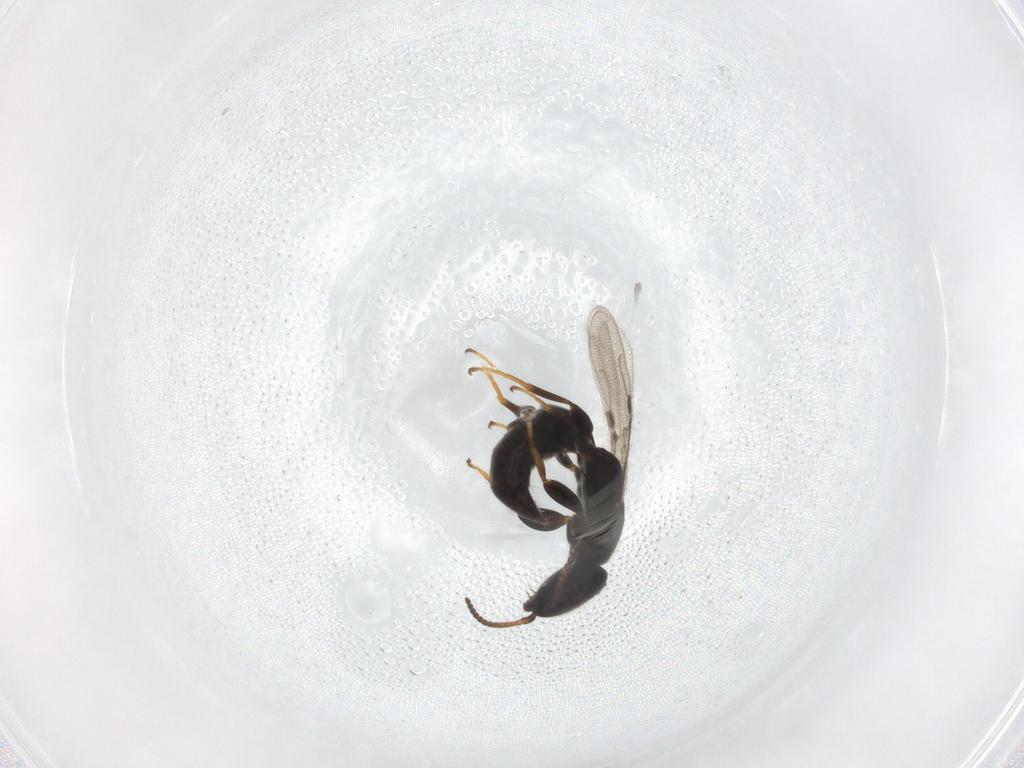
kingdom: Animalia
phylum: Arthropoda
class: Insecta
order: Hymenoptera
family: Bethylidae
